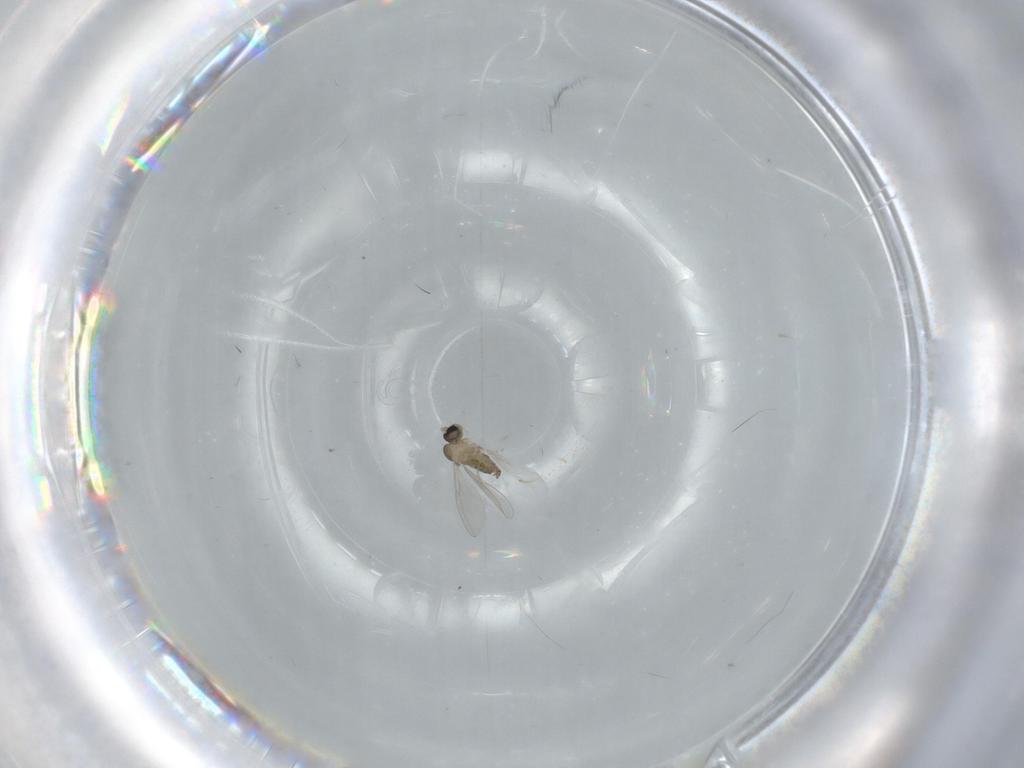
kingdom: Animalia
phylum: Arthropoda
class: Insecta
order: Diptera
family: Cecidomyiidae
